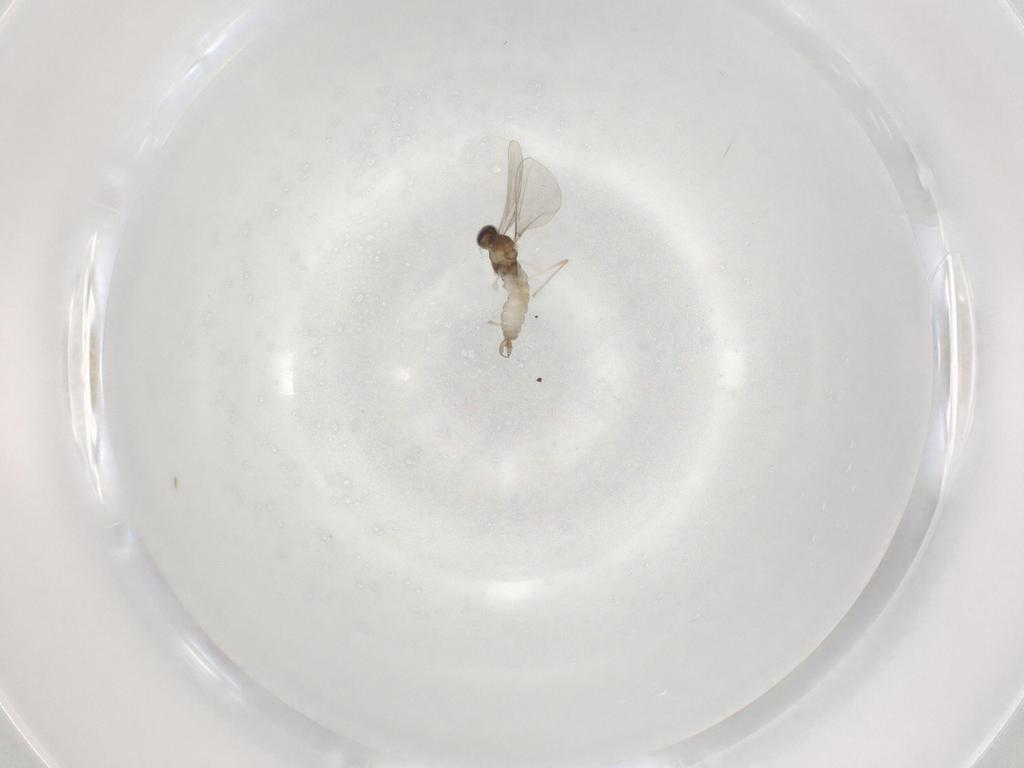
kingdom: Animalia
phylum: Arthropoda
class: Insecta
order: Diptera
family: Cecidomyiidae
